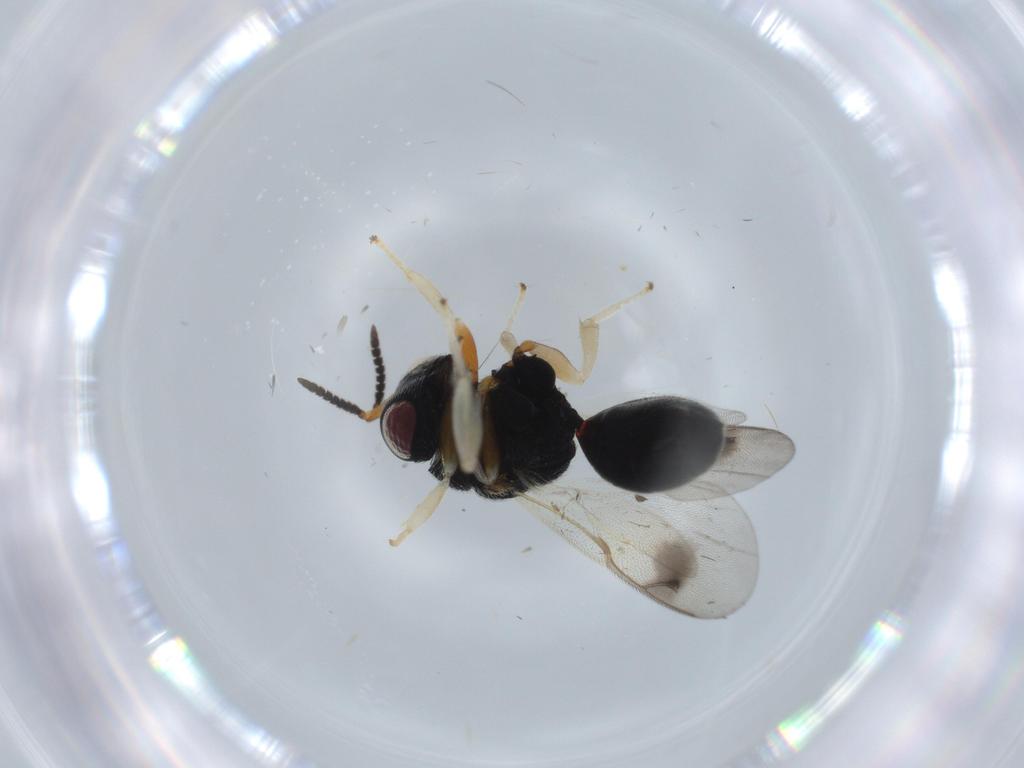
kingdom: Animalia
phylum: Arthropoda
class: Insecta
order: Hymenoptera
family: Eurytomidae
